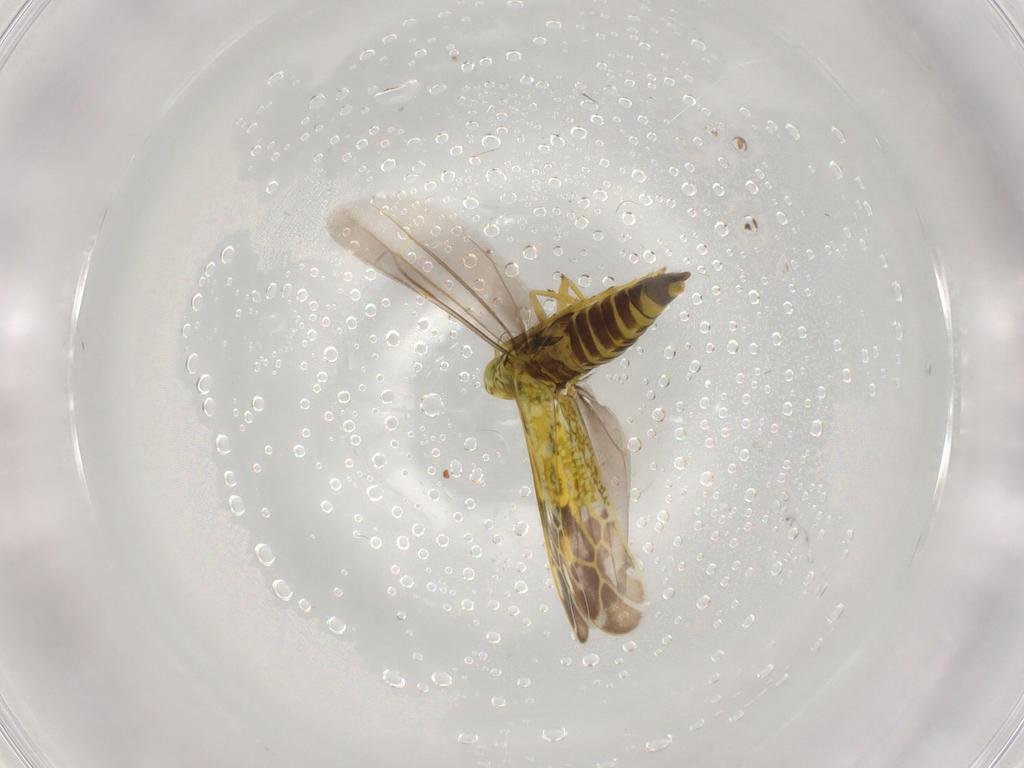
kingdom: Animalia
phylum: Arthropoda
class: Insecta
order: Hemiptera
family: Cicadellidae
